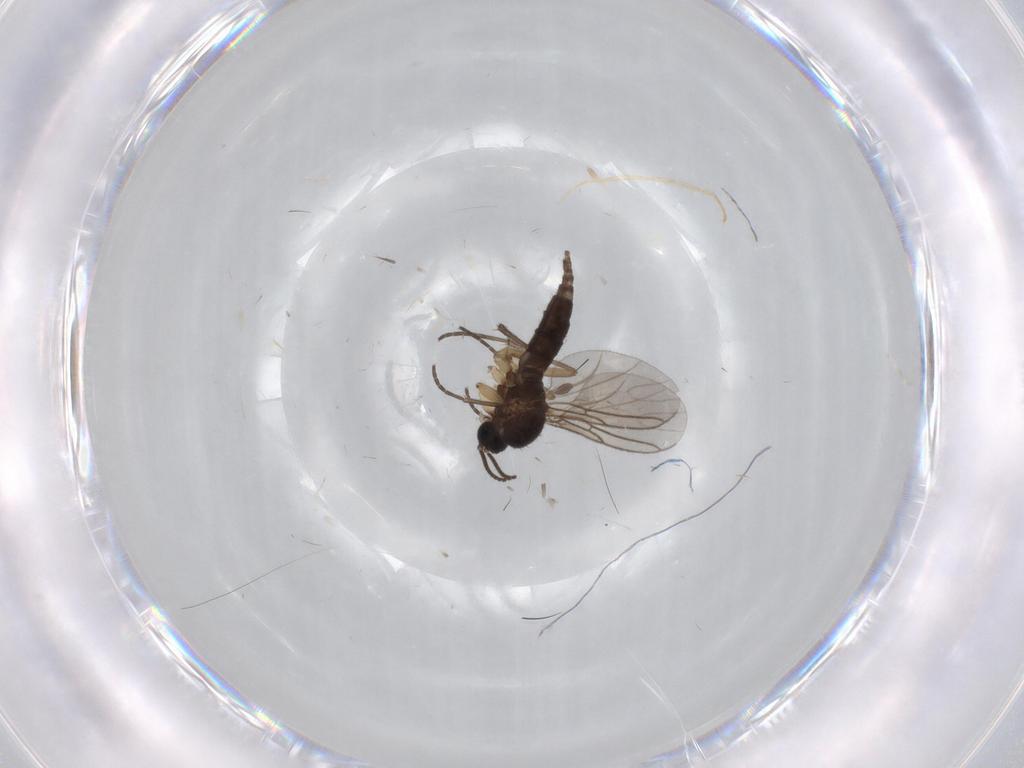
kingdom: Animalia
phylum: Arthropoda
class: Insecta
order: Diptera
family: Sciaridae
